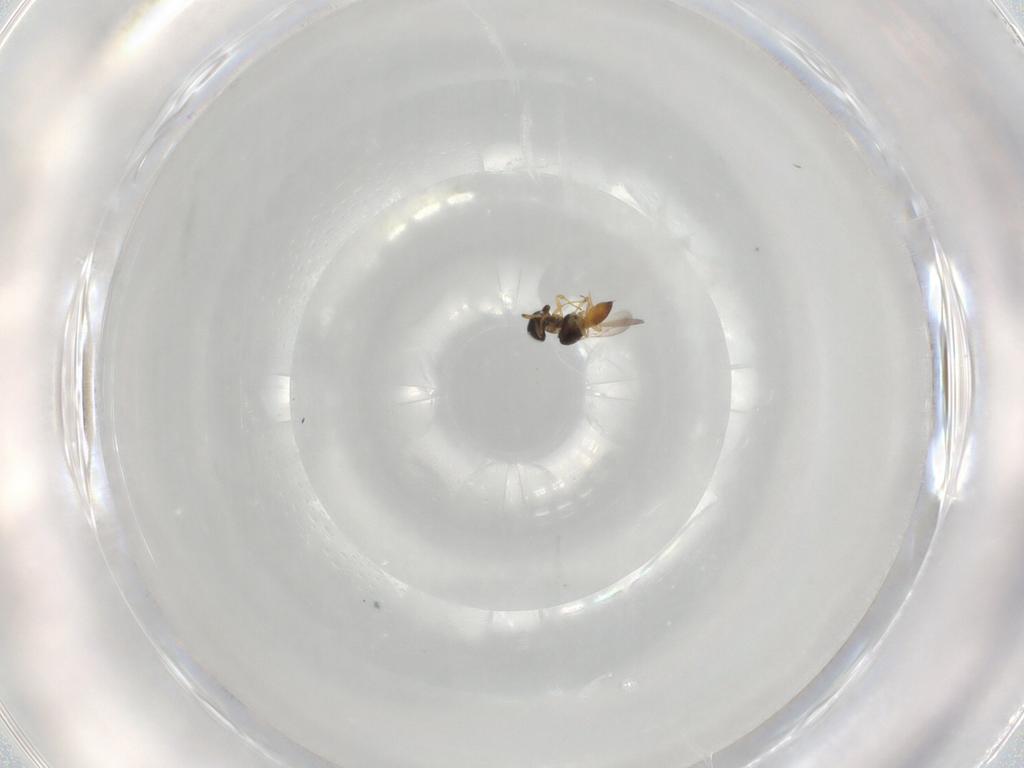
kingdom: Animalia
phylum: Arthropoda
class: Insecta
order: Hymenoptera
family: Scelionidae
